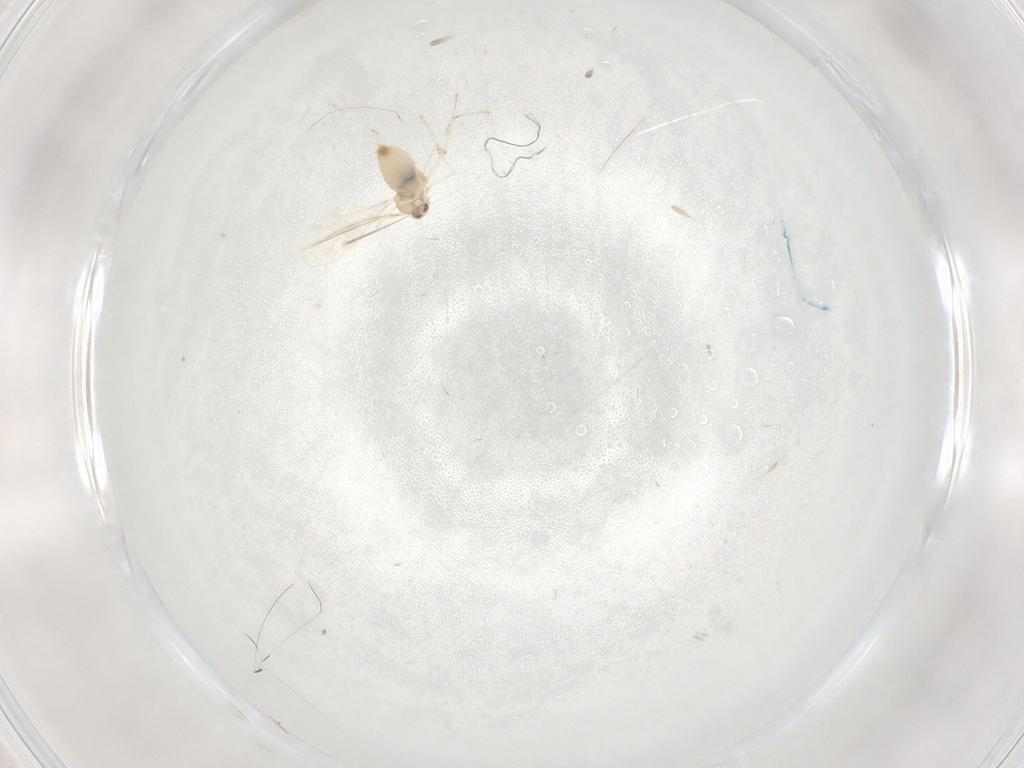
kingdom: Animalia
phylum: Arthropoda
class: Insecta
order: Diptera
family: Cecidomyiidae
